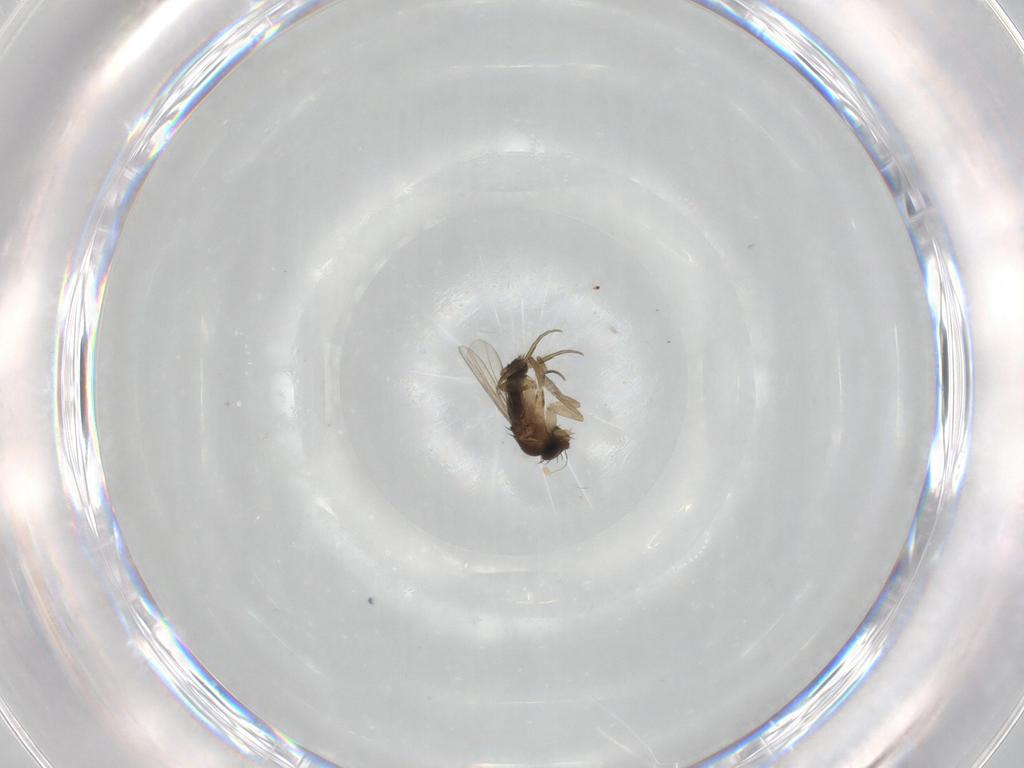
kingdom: Animalia
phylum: Arthropoda
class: Insecta
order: Diptera
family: Phoridae
